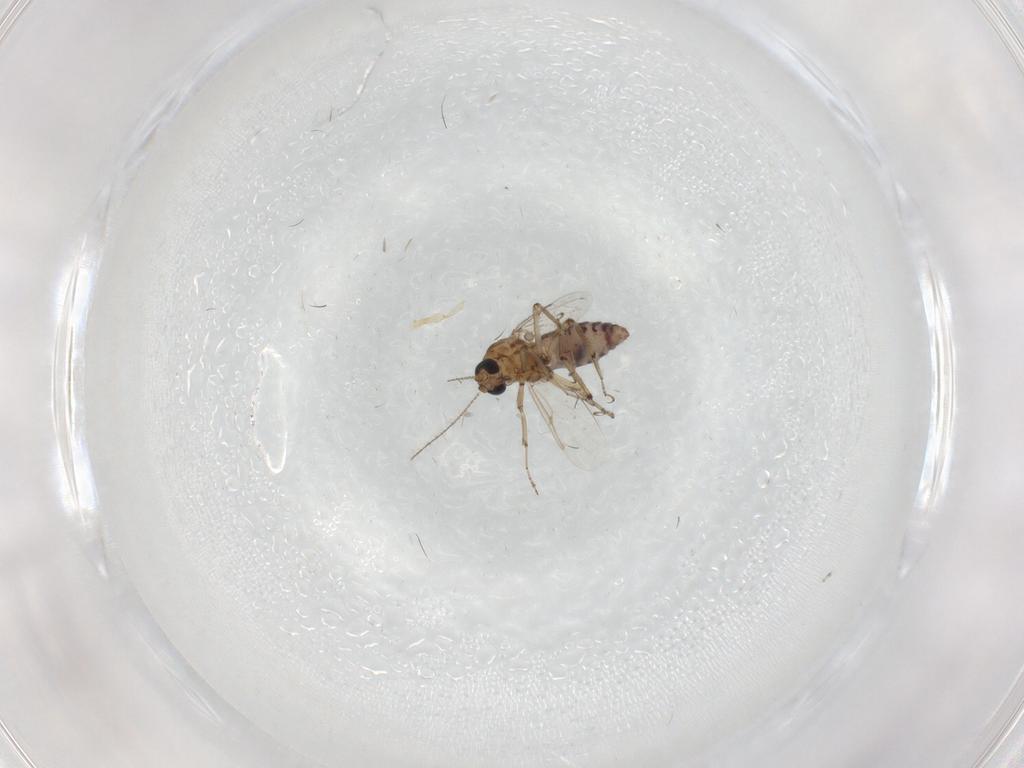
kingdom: Animalia
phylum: Arthropoda
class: Insecta
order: Diptera
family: Ceratopogonidae
